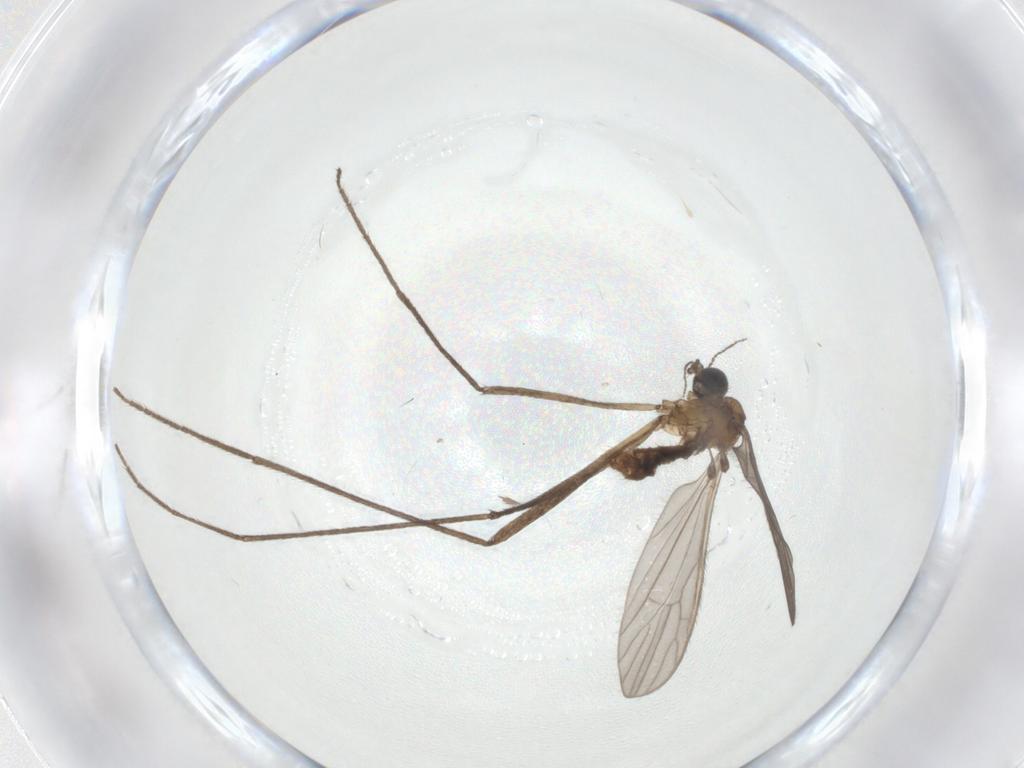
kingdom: Animalia
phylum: Arthropoda
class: Insecta
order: Diptera
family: Limoniidae
